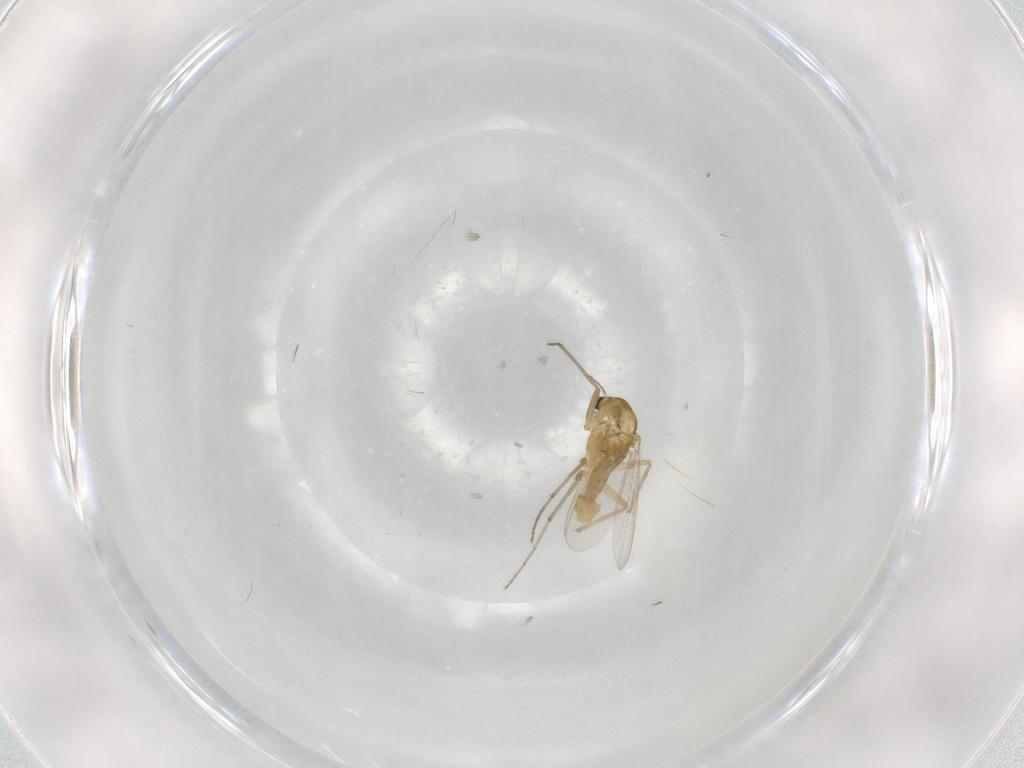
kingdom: Animalia
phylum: Arthropoda
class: Insecta
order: Diptera
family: Chironomidae
